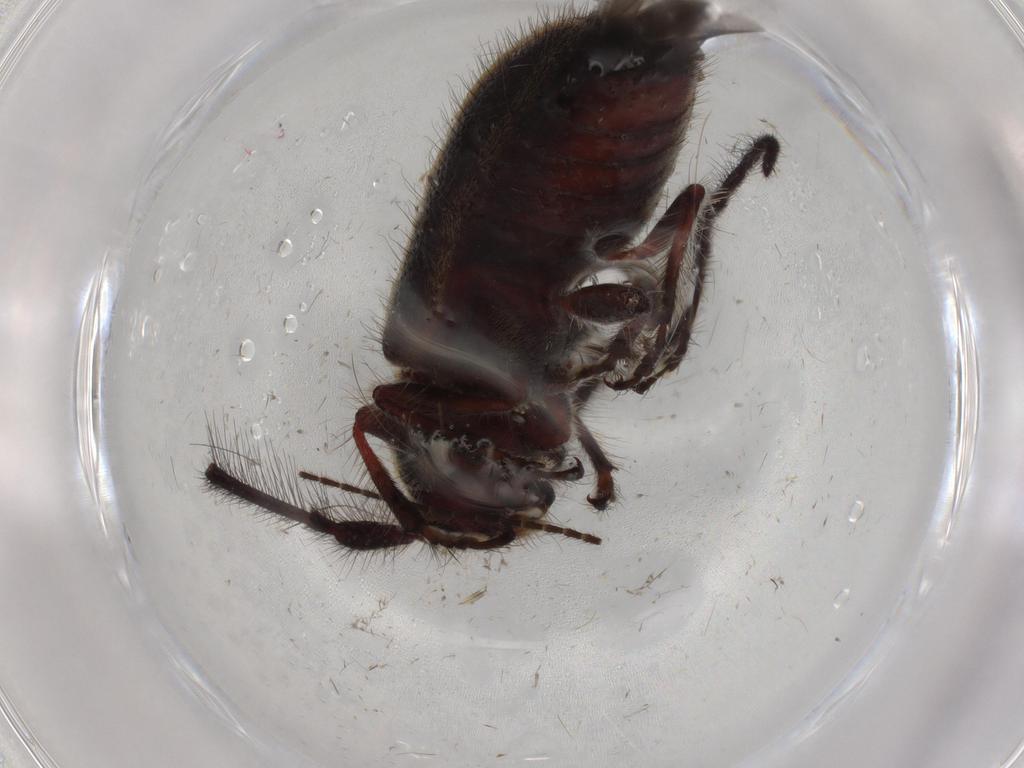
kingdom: Animalia
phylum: Arthropoda
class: Insecta
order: Coleoptera
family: Cerambycidae
